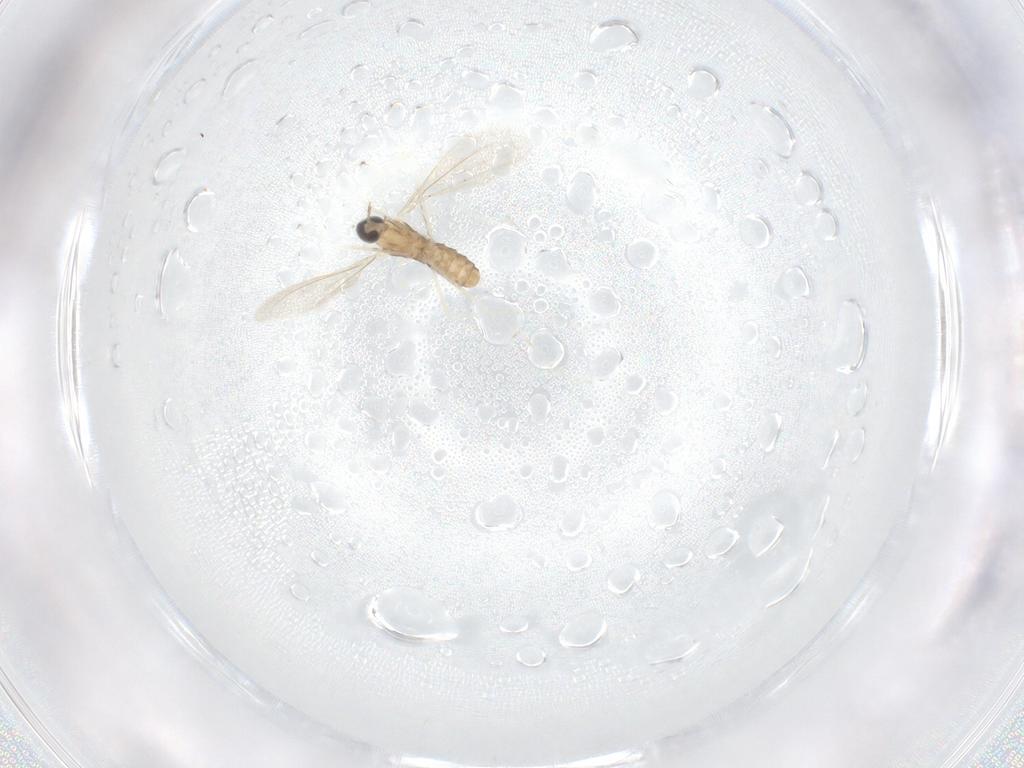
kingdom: Animalia
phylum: Arthropoda
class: Insecta
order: Diptera
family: Cecidomyiidae
